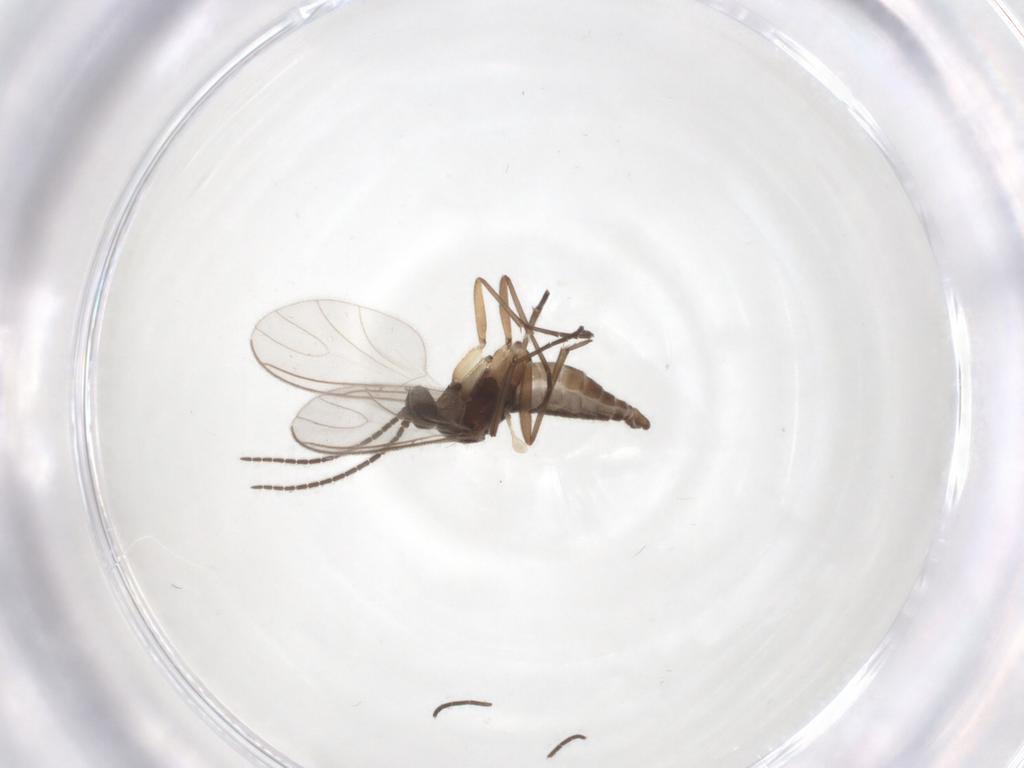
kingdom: Animalia
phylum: Arthropoda
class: Insecta
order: Diptera
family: Sciaridae
